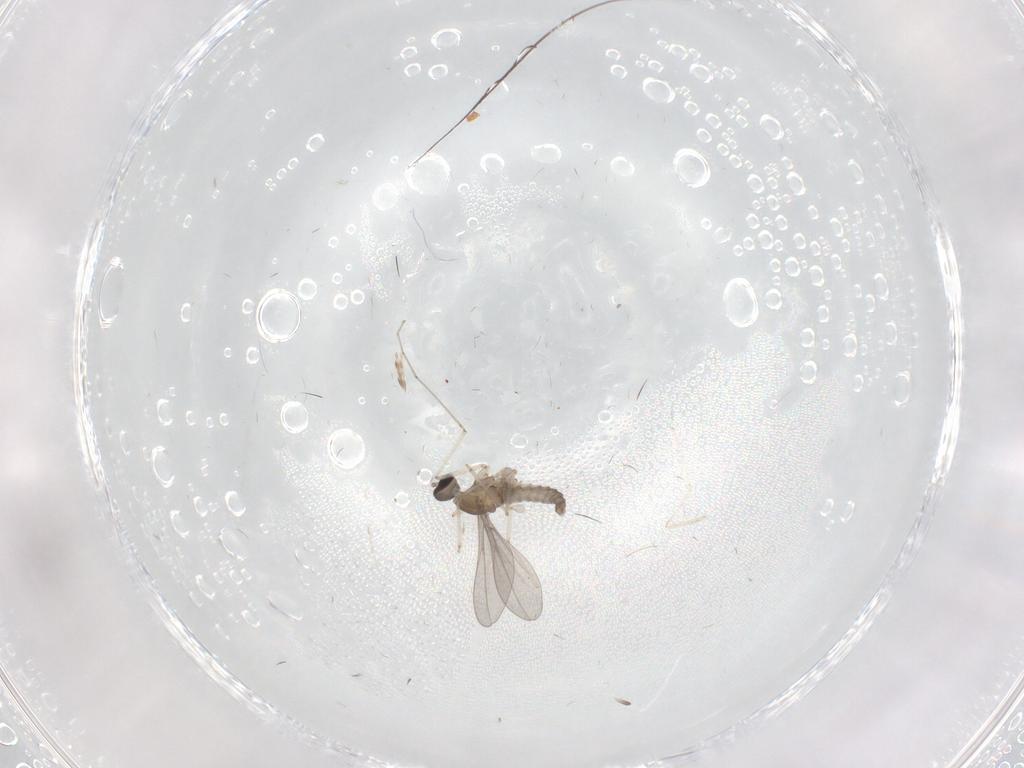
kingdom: Animalia
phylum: Arthropoda
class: Insecta
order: Diptera
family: Cecidomyiidae
